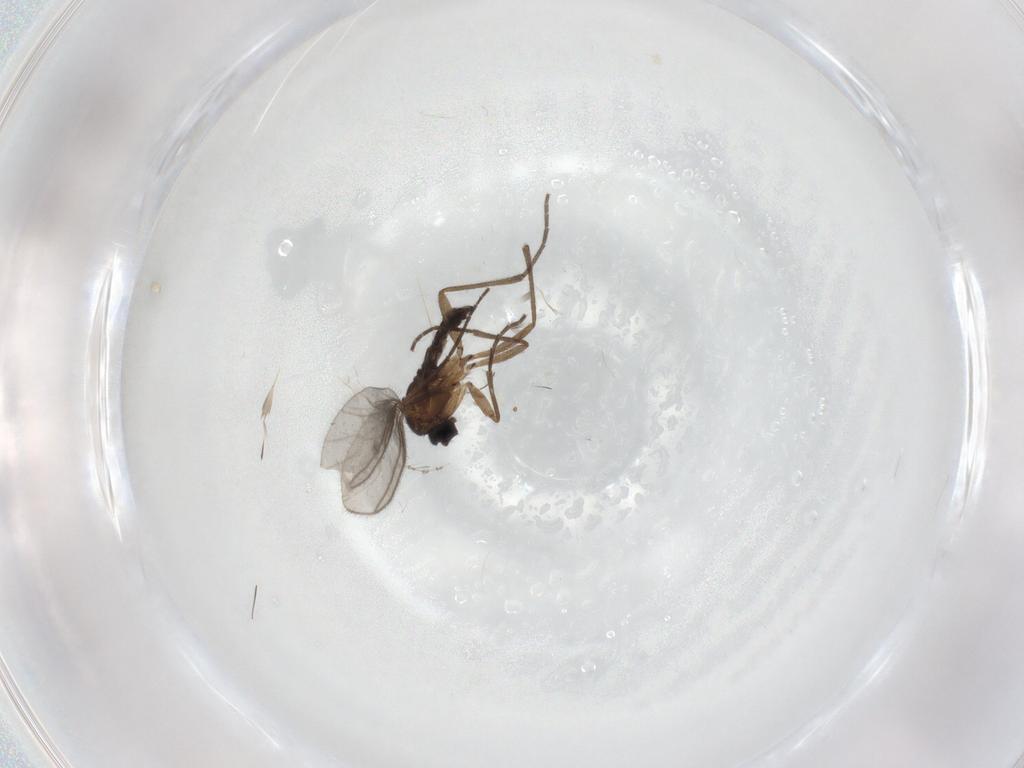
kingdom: Animalia
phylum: Arthropoda
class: Insecta
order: Diptera
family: Sciaridae
